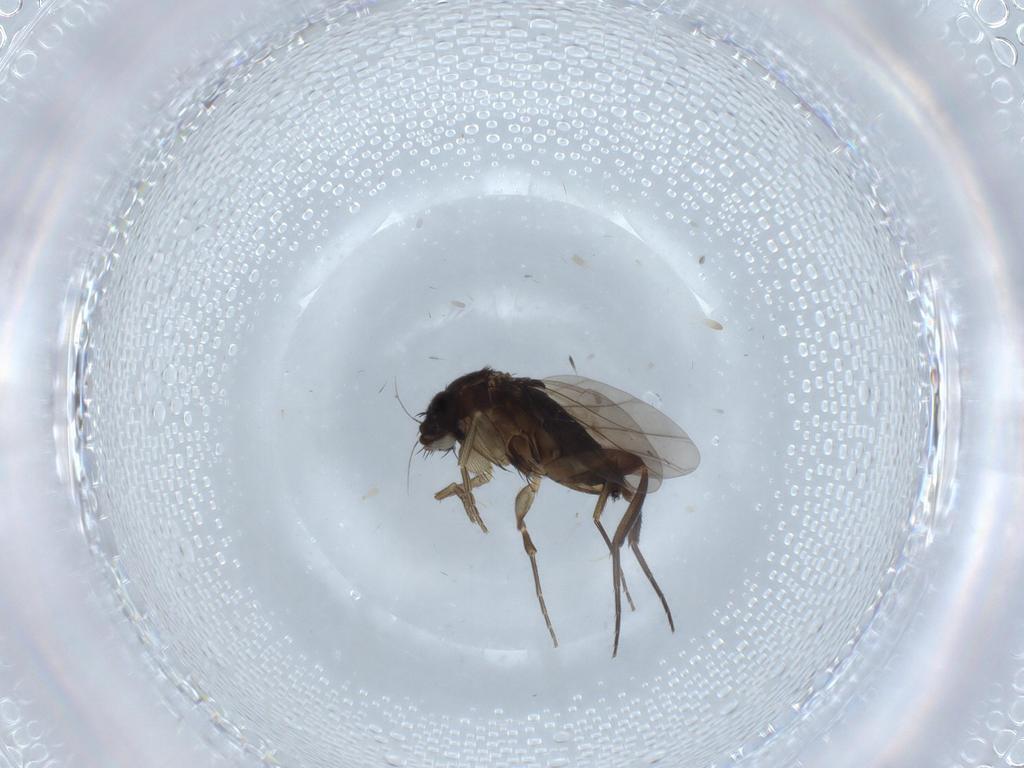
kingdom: Animalia
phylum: Arthropoda
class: Insecta
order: Diptera
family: Phoridae
